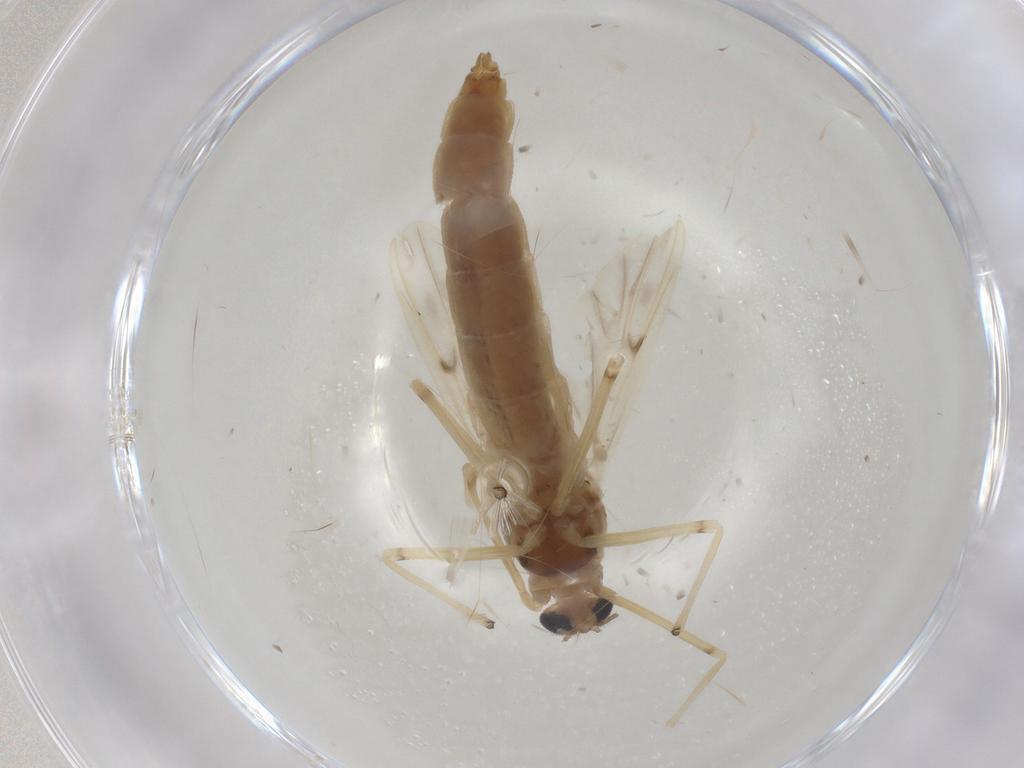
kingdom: Animalia
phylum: Arthropoda
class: Insecta
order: Diptera
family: Chironomidae
